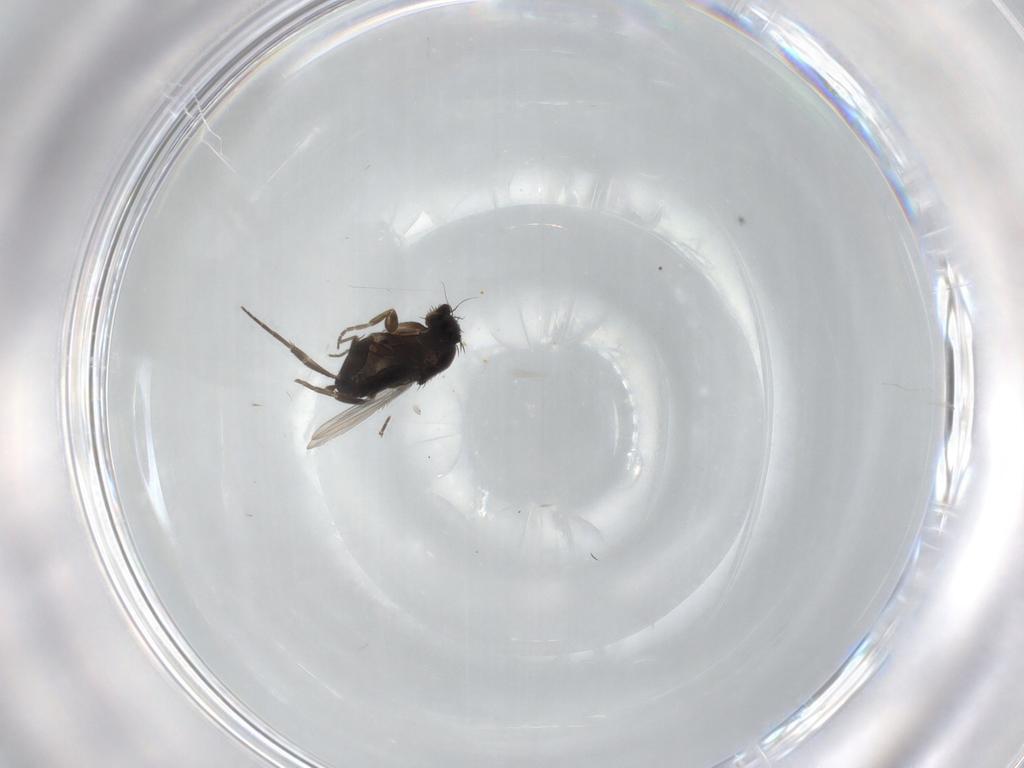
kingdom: Animalia
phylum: Arthropoda
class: Insecta
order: Diptera
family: Phoridae
